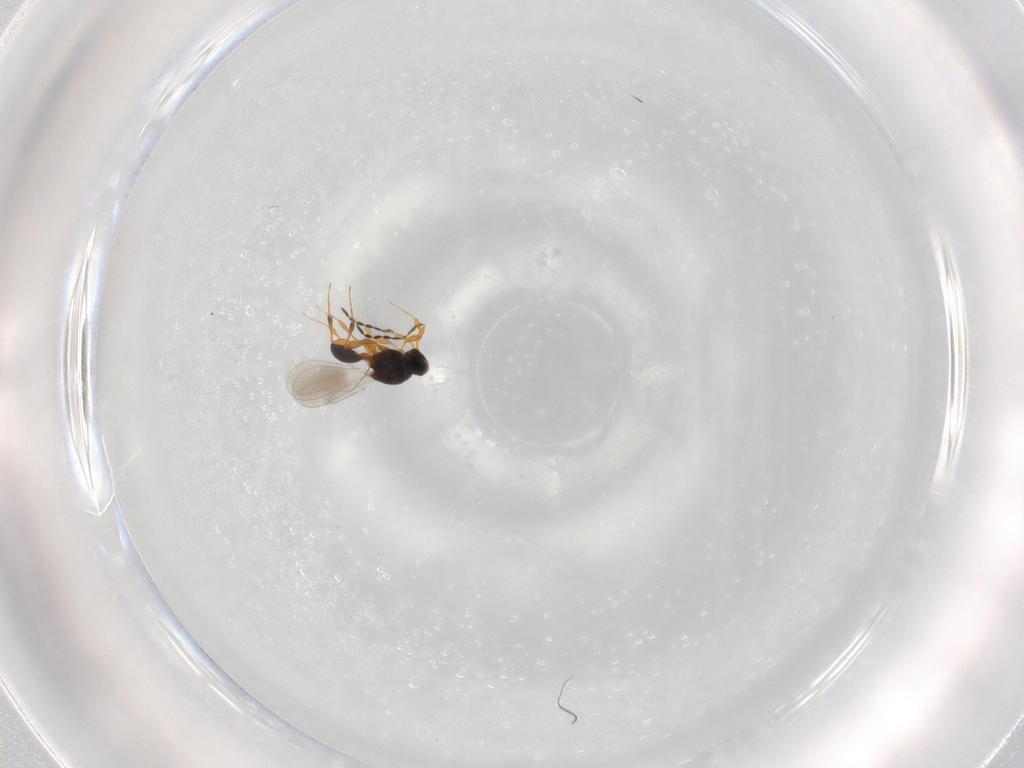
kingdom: Animalia
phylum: Arthropoda
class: Insecta
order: Hymenoptera
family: Platygastridae
